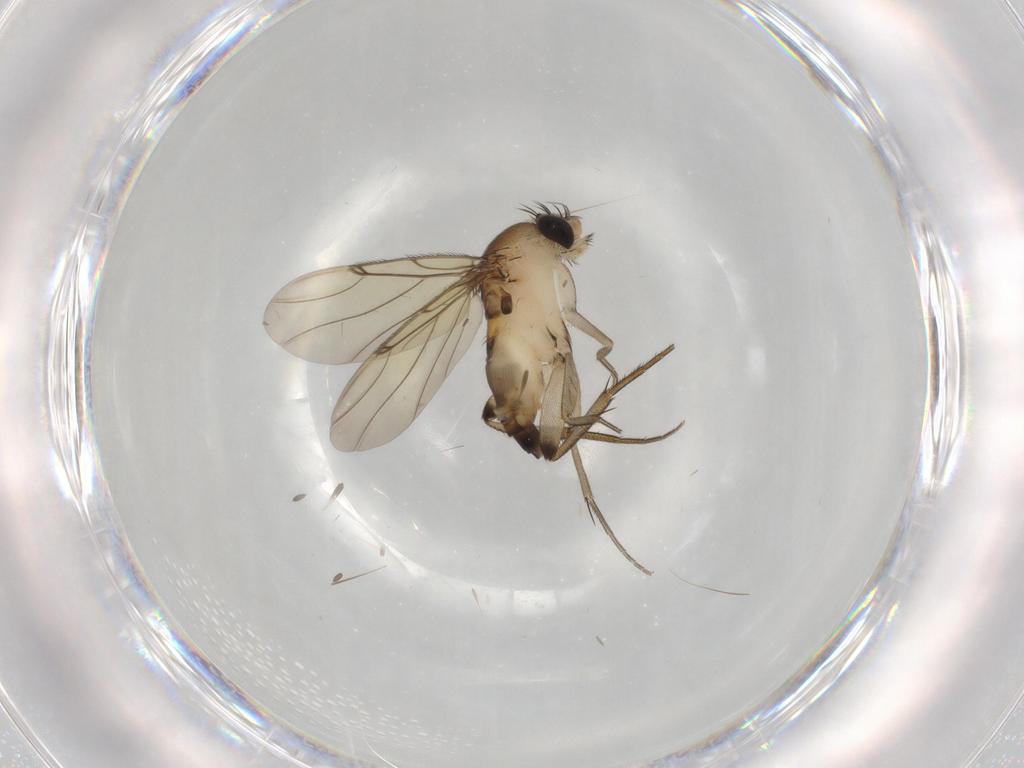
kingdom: Animalia
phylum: Arthropoda
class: Insecta
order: Diptera
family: Phoridae
